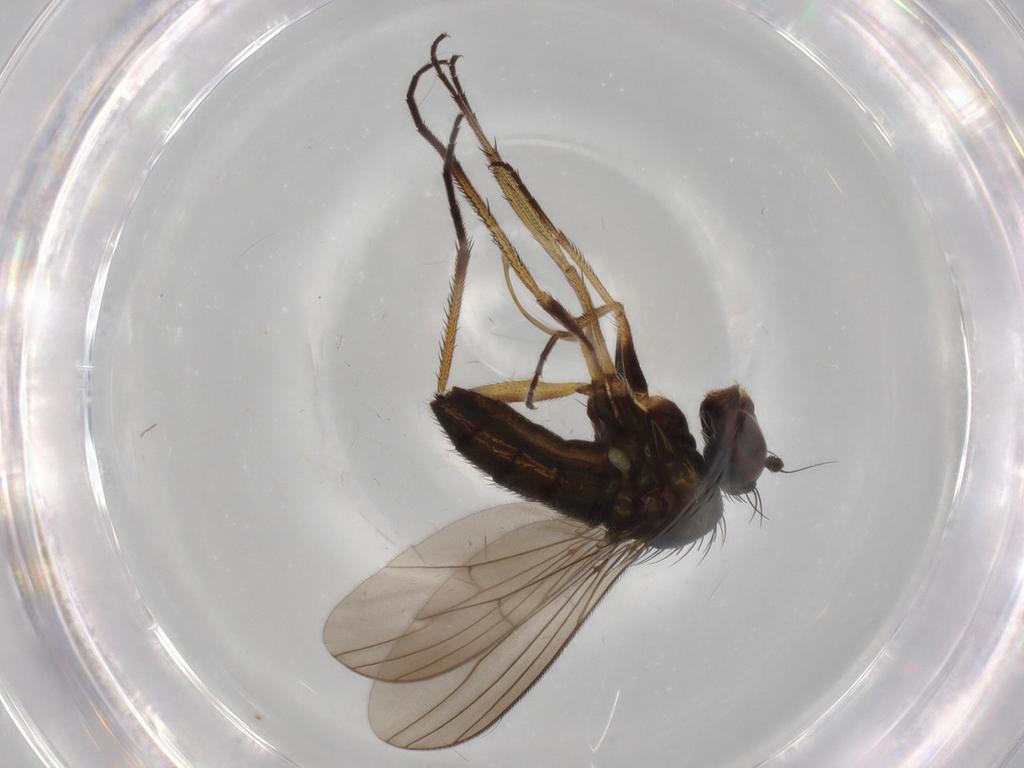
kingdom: Animalia
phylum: Arthropoda
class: Insecta
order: Diptera
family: Dolichopodidae
